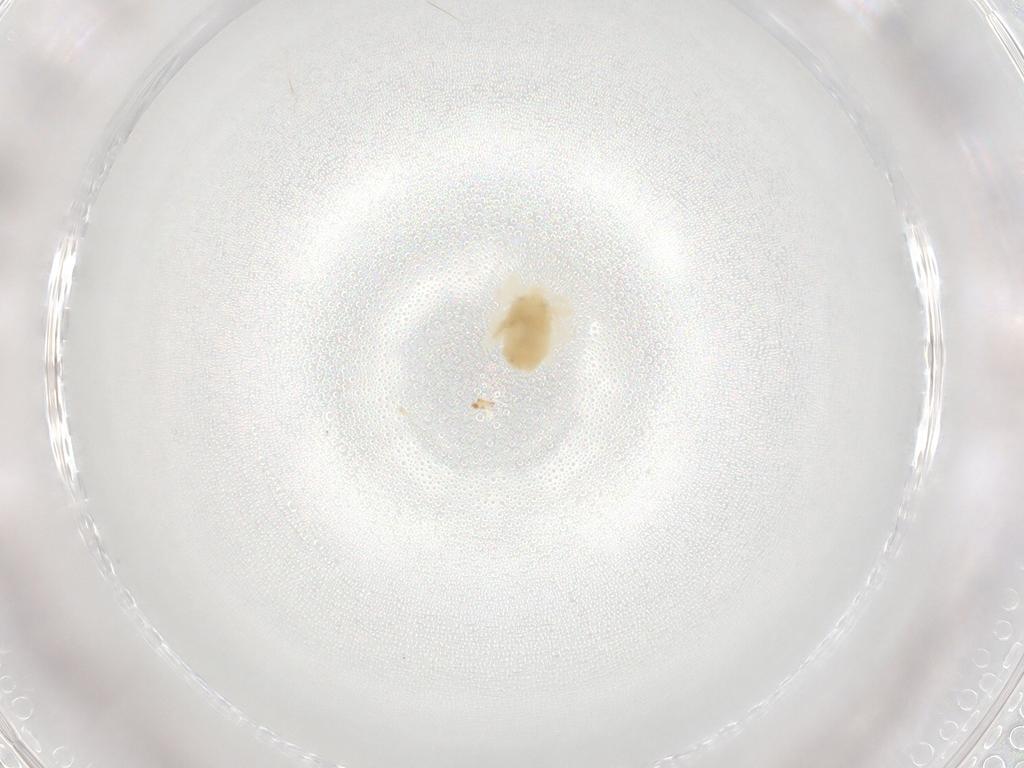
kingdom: Animalia
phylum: Arthropoda
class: Arachnida
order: Trombidiformes
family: Eupodidae
